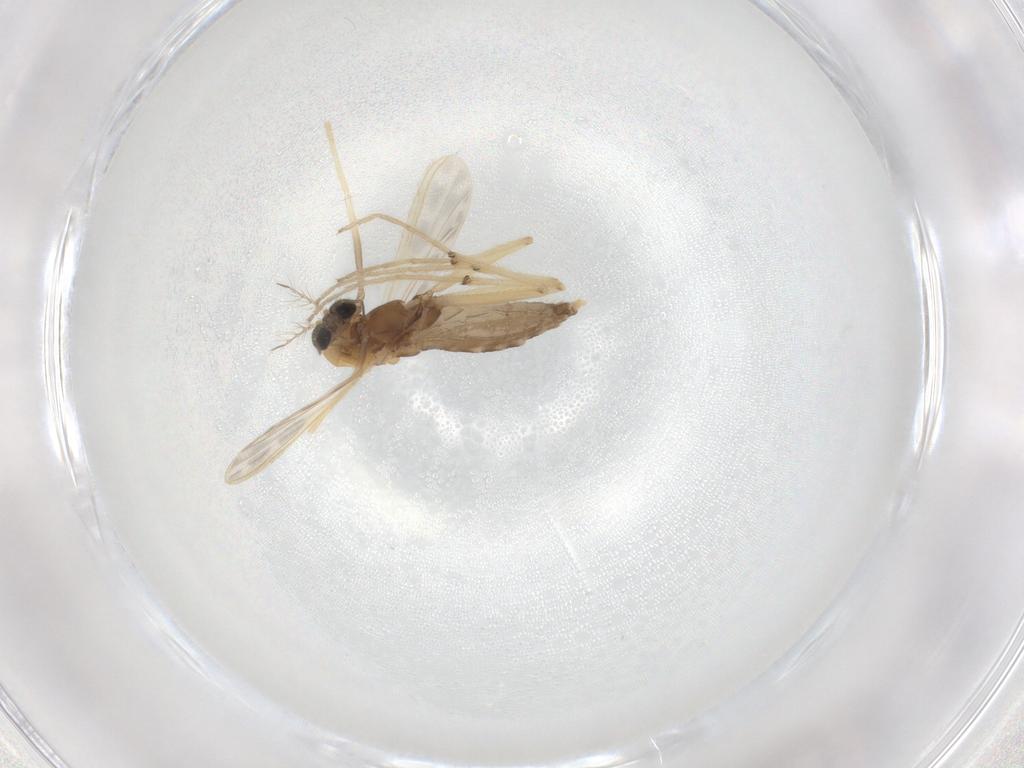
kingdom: Animalia
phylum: Arthropoda
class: Insecta
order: Diptera
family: Chironomidae
